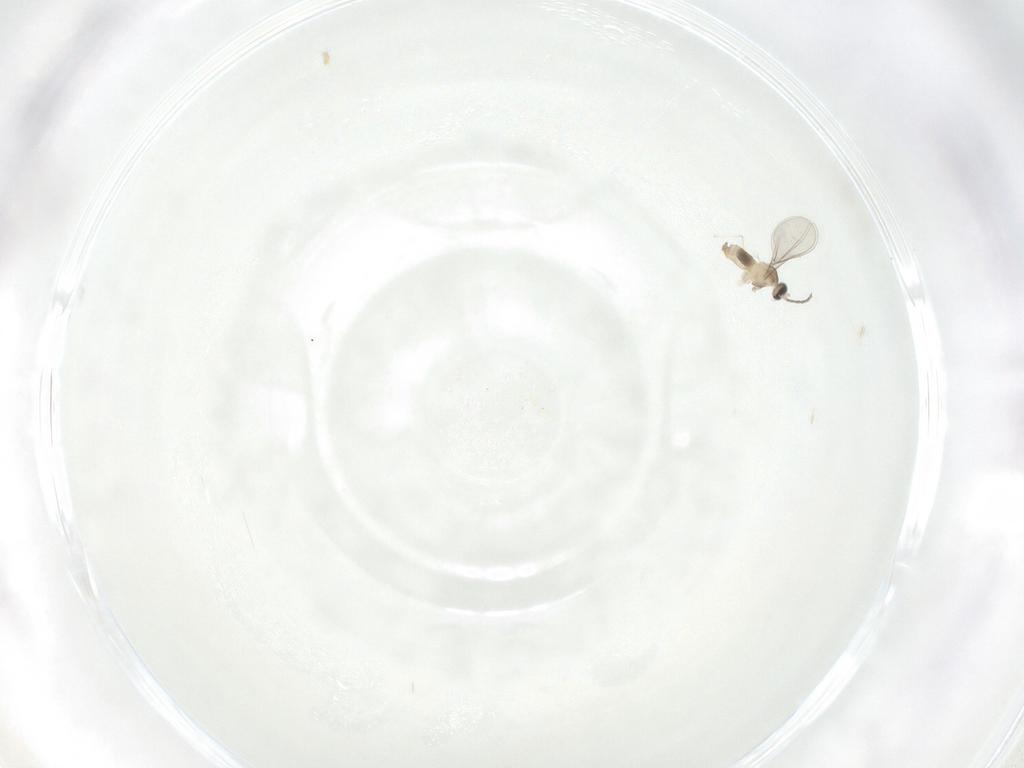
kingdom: Animalia
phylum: Arthropoda
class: Insecta
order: Diptera
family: Cecidomyiidae
